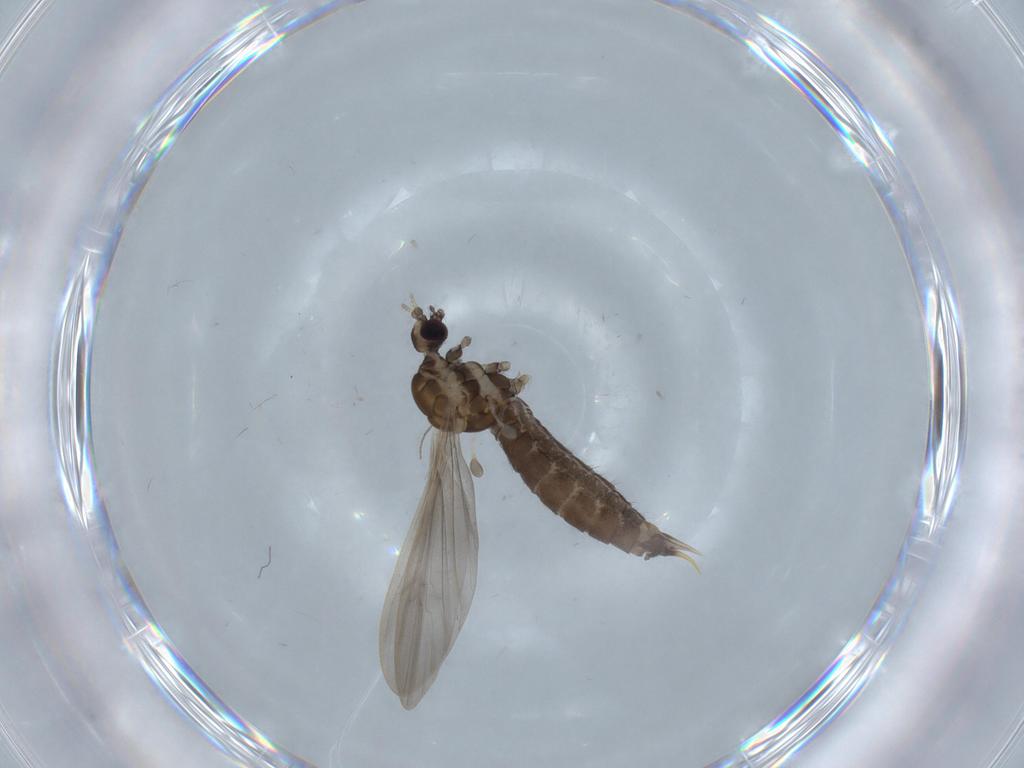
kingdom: Animalia
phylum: Arthropoda
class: Insecta
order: Diptera
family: Limoniidae
